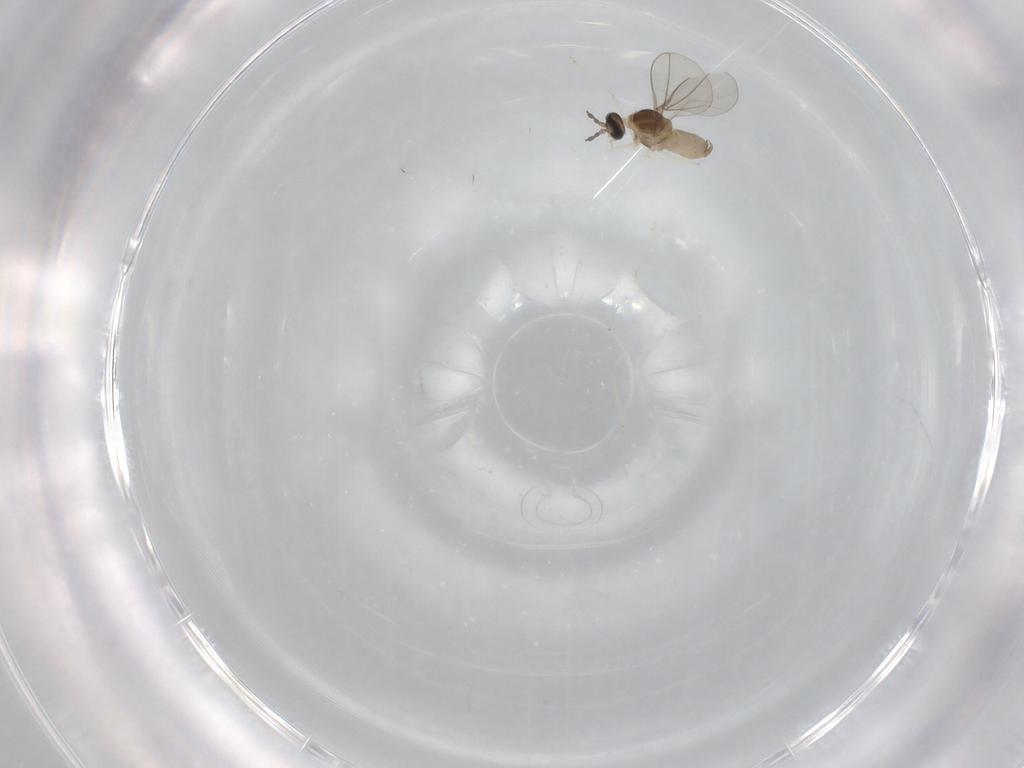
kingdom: Animalia
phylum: Arthropoda
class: Insecta
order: Diptera
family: Cecidomyiidae
